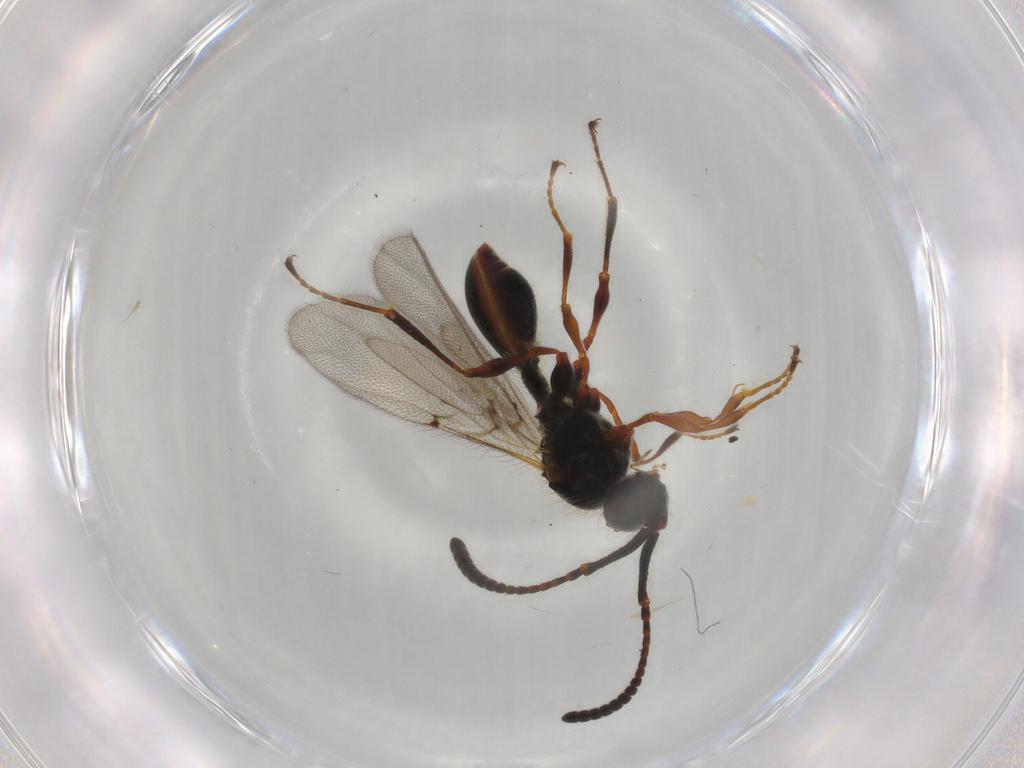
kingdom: Animalia
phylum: Arthropoda
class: Insecta
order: Hymenoptera
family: Diapriidae
